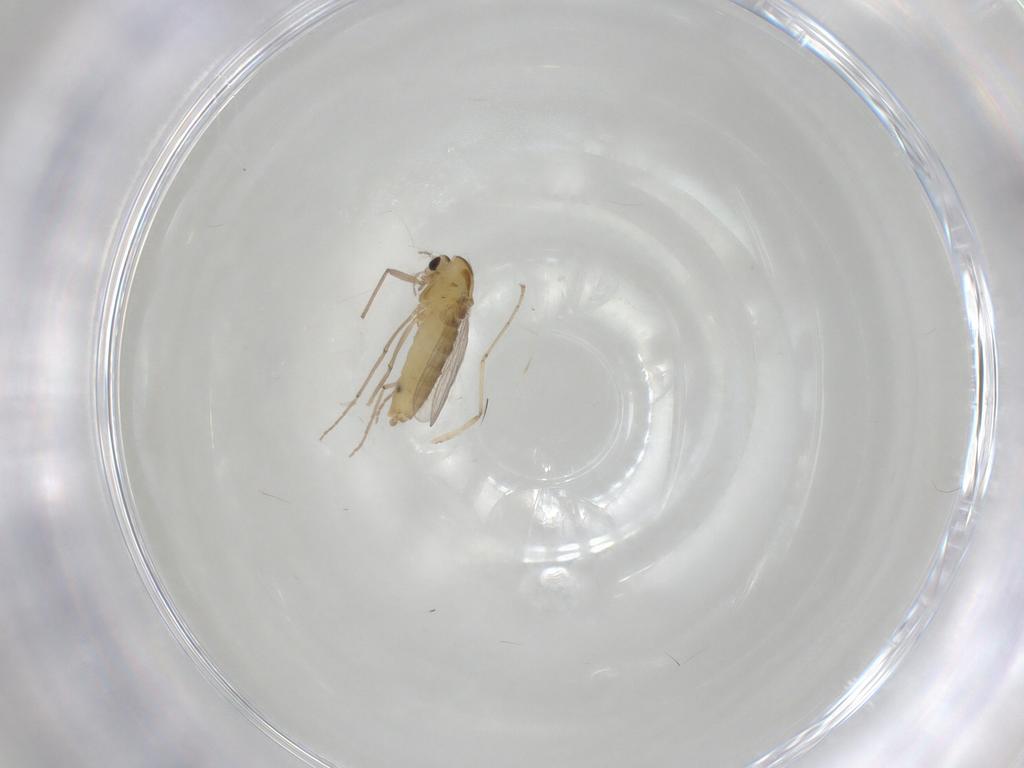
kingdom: Animalia
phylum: Arthropoda
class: Insecta
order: Diptera
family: Chironomidae
